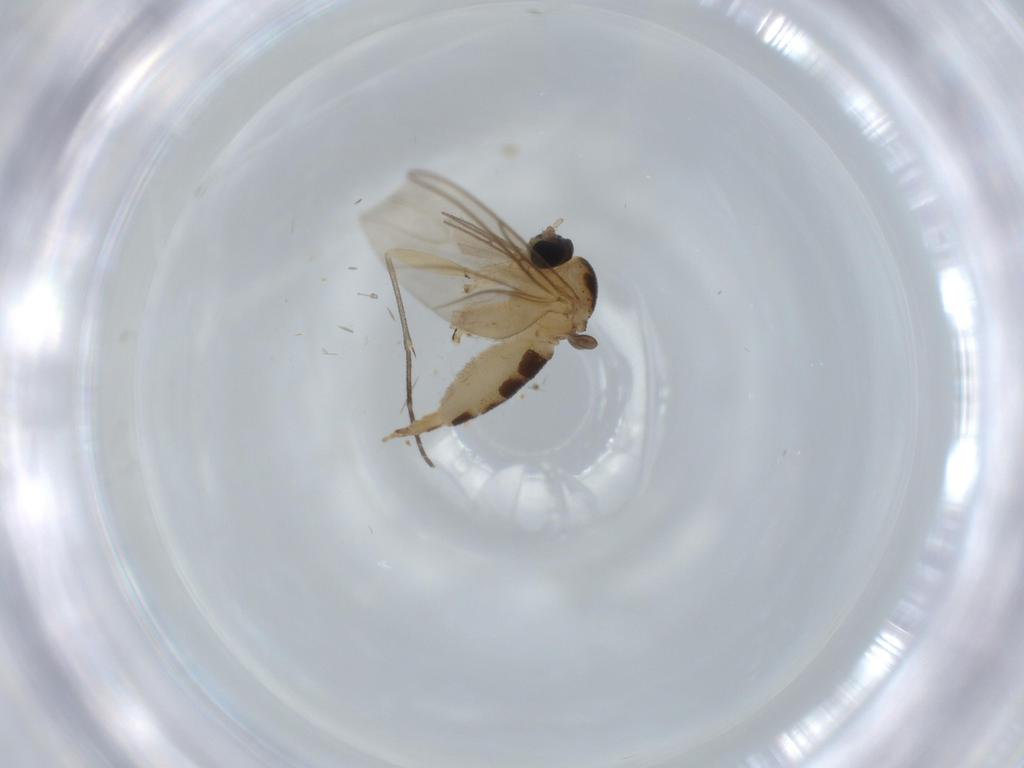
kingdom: Animalia
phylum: Arthropoda
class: Insecta
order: Diptera
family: Sciaridae
